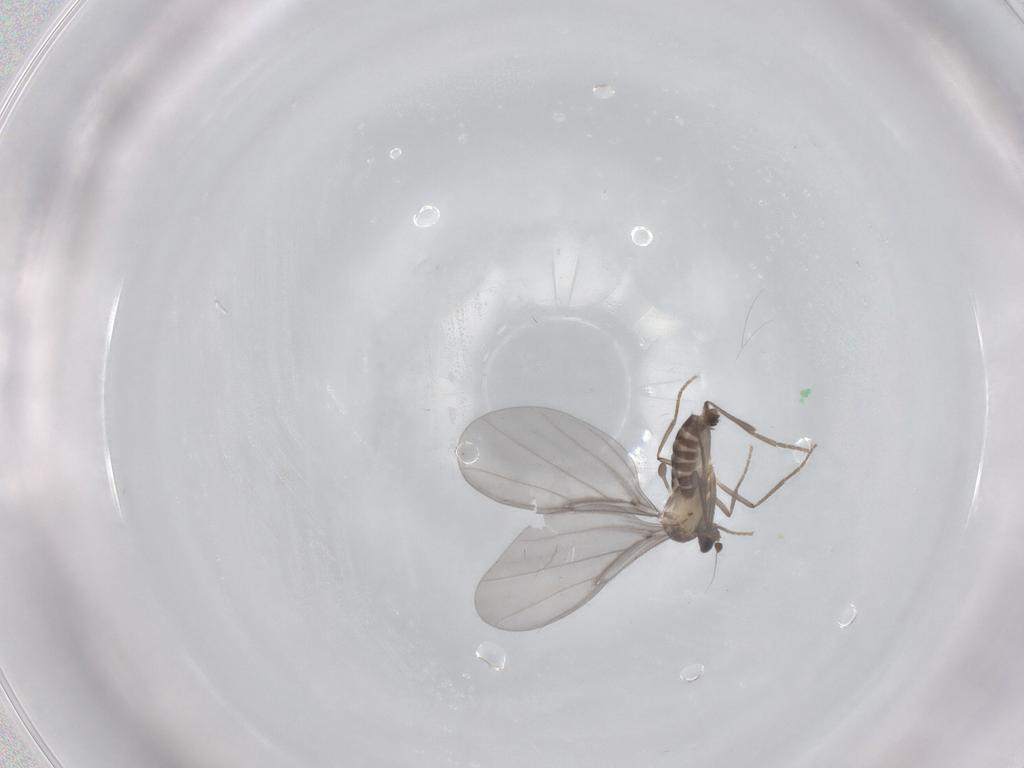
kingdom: Animalia
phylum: Arthropoda
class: Insecta
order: Diptera
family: Phoridae
